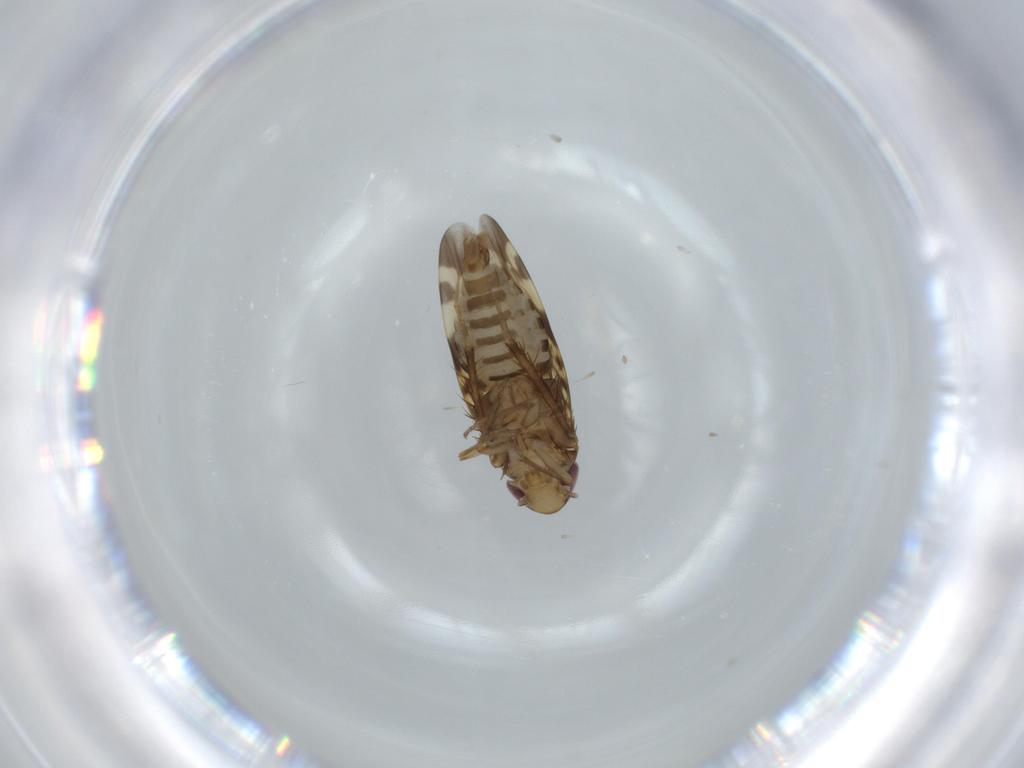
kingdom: Animalia
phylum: Arthropoda
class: Insecta
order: Hemiptera
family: Cicadellidae
